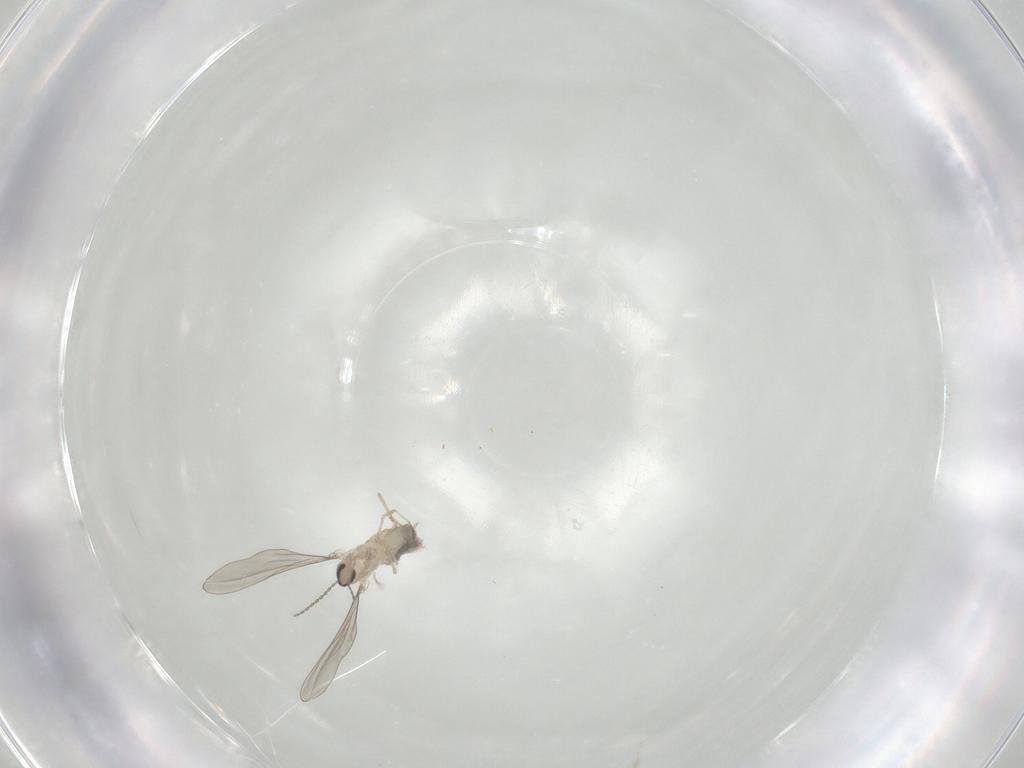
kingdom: Animalia
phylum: Arthropoda
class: Insecta
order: Diptera
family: Cecidomyiidae
